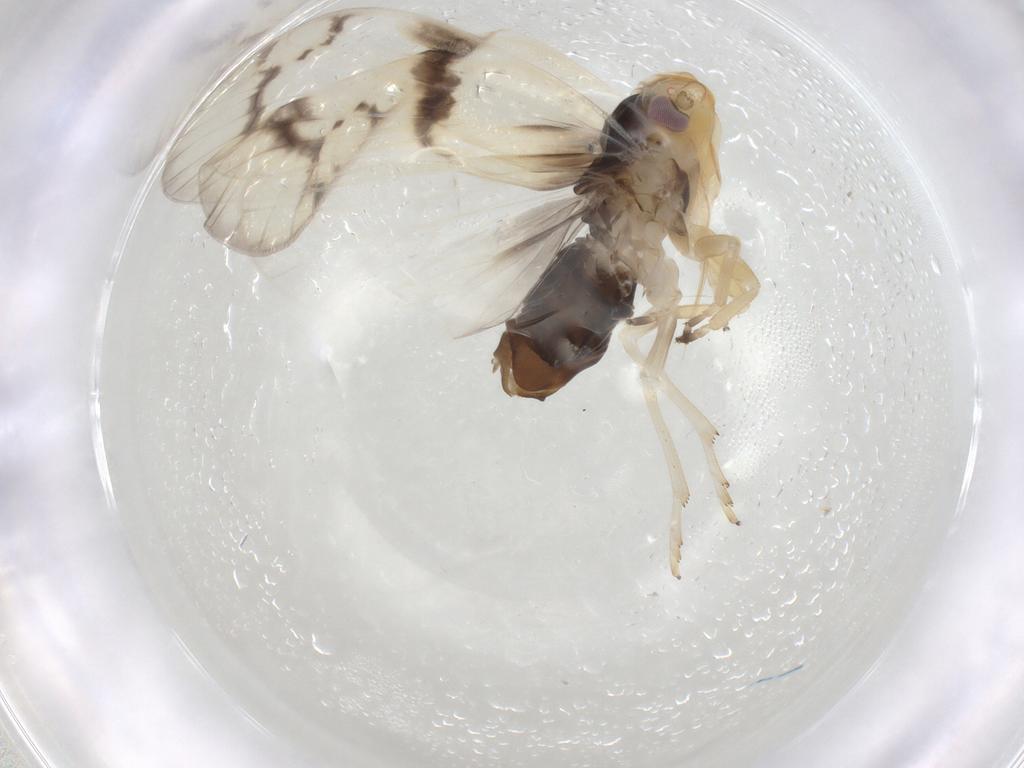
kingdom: Animalia
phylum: Arthropoda
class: Insecta
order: Hemiptera
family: Cixiidae
